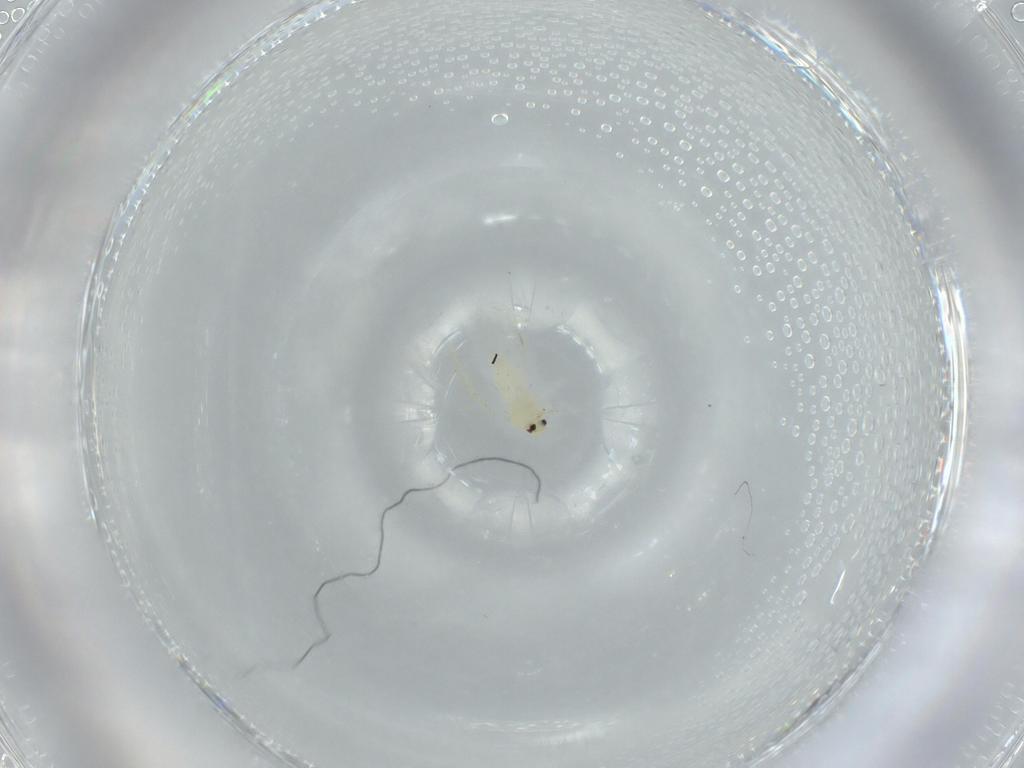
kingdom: Animalia
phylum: Arthropoda
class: Insecta
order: Hemiptera
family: Aleyrodidae
